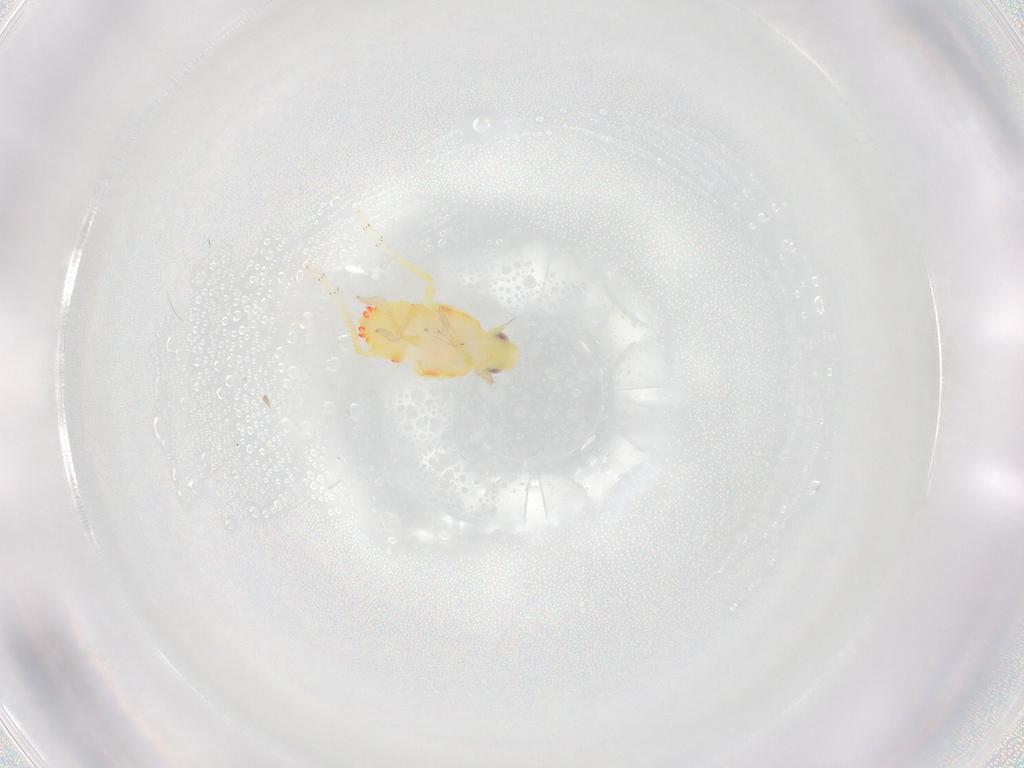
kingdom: Animalia
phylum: Arthropoda
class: Insecta
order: Hemiptera
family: Tropiduchidae
